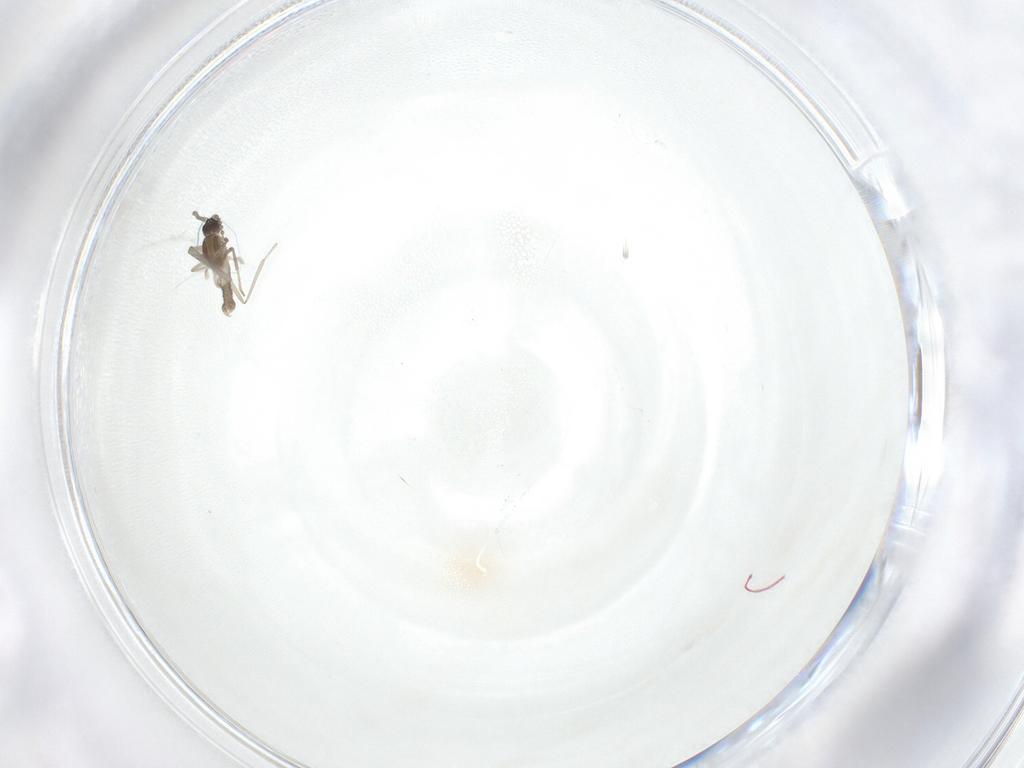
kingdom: Animalia
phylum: Arthropoda
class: Insecta
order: Diptera
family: Cecidomyiidae
